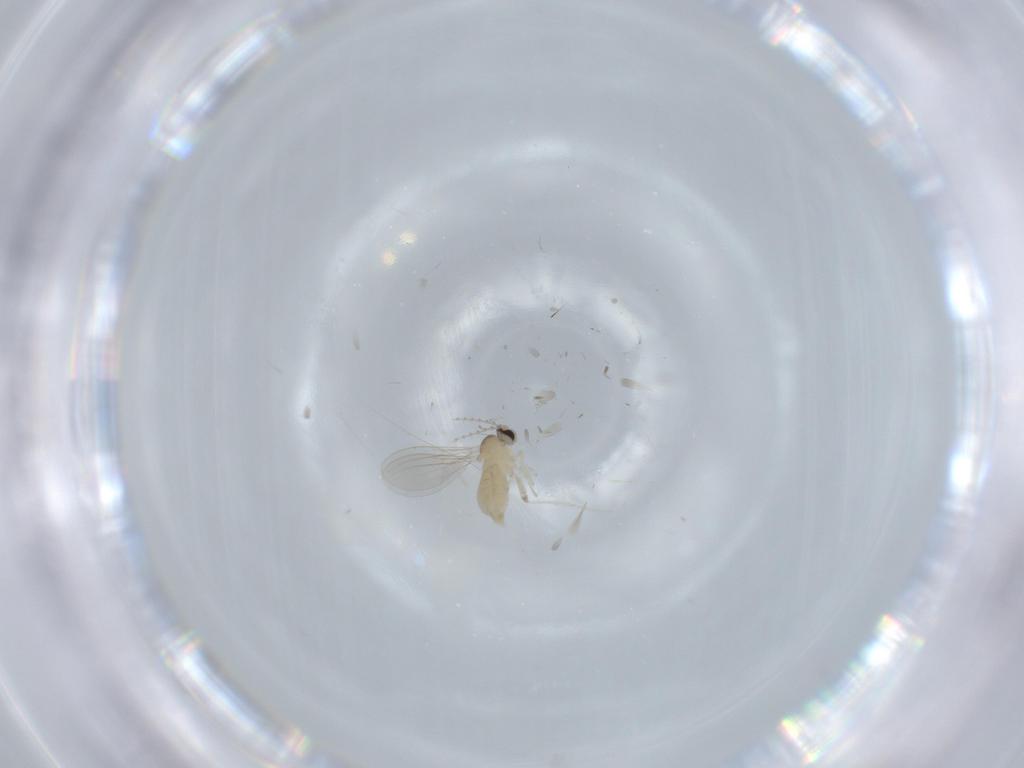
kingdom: Animalia
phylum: Arthropoda
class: Insecta
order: Diptera
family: Cecidomyiidae
